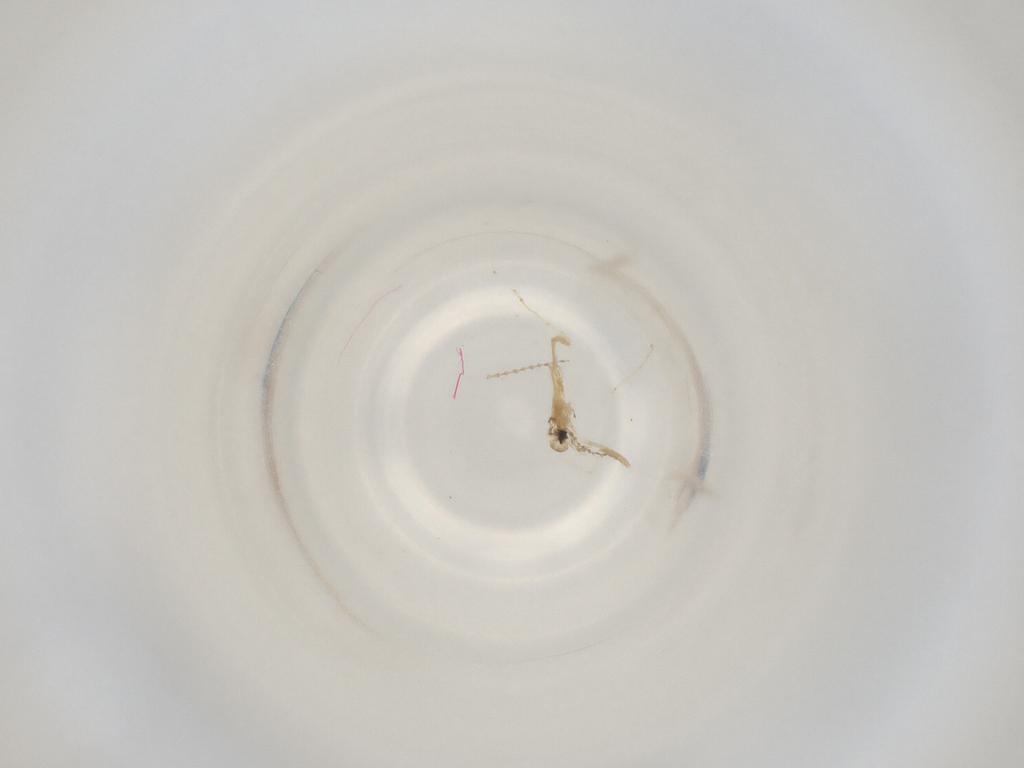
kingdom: Animalia
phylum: Arthropoda
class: Insecta
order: Diptera
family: Cecidomyiidae
